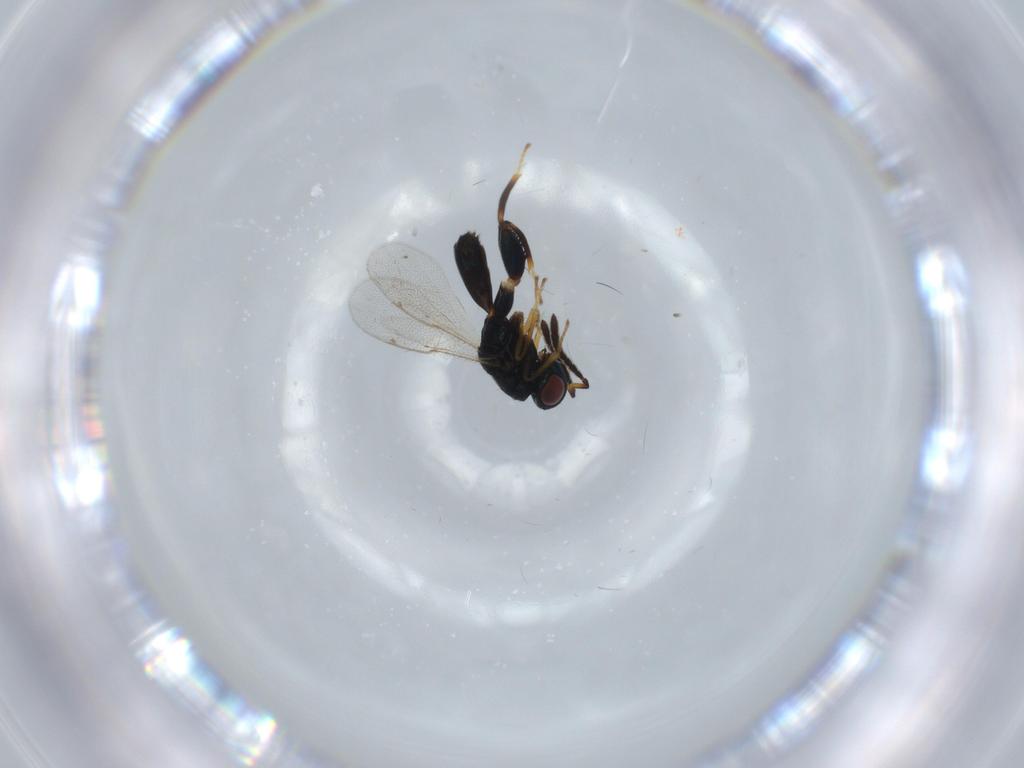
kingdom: Animalia
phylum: Arthropoda
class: Insecta
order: Hymenoptera
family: Torymidae
